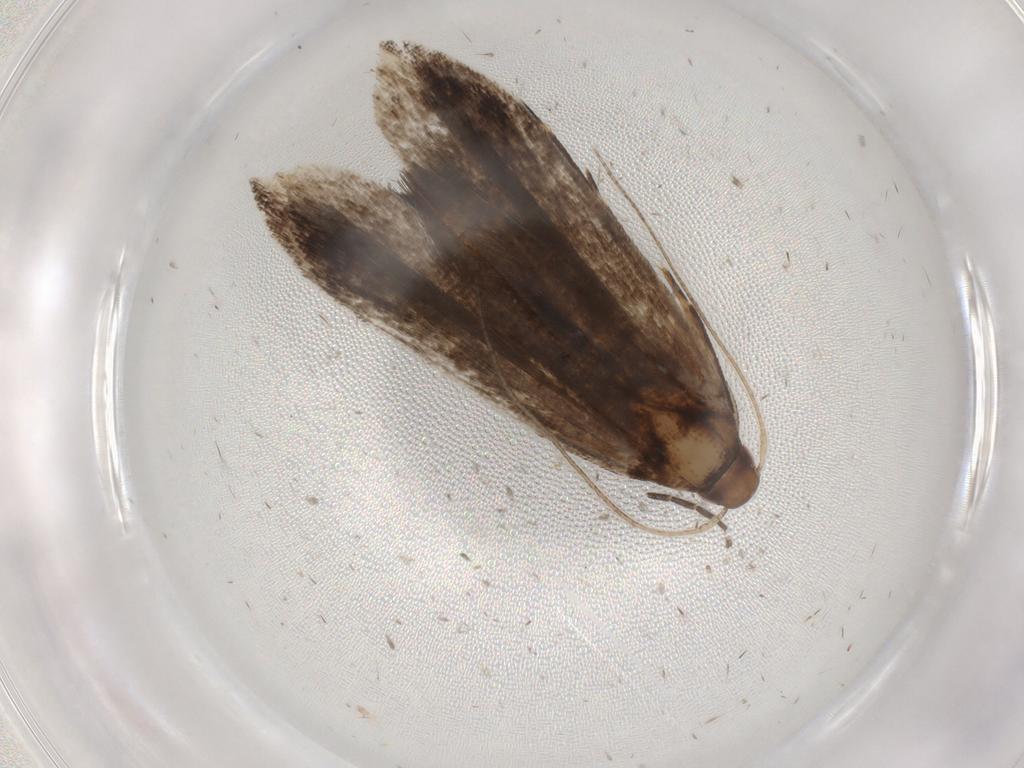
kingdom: Animalia
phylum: Arthropoda
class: Insecta
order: Lepidoptera
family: Gelechiidae
